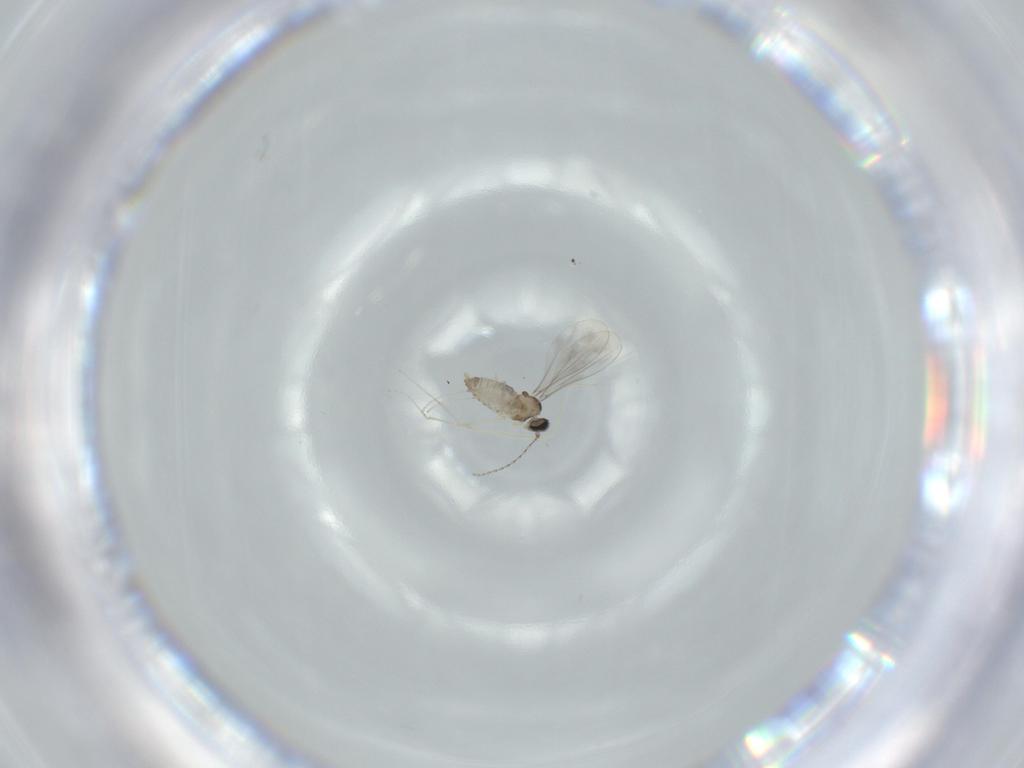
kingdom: Animalia
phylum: Arthropoda
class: Insecta
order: Diptera
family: Cecidomyiidae
